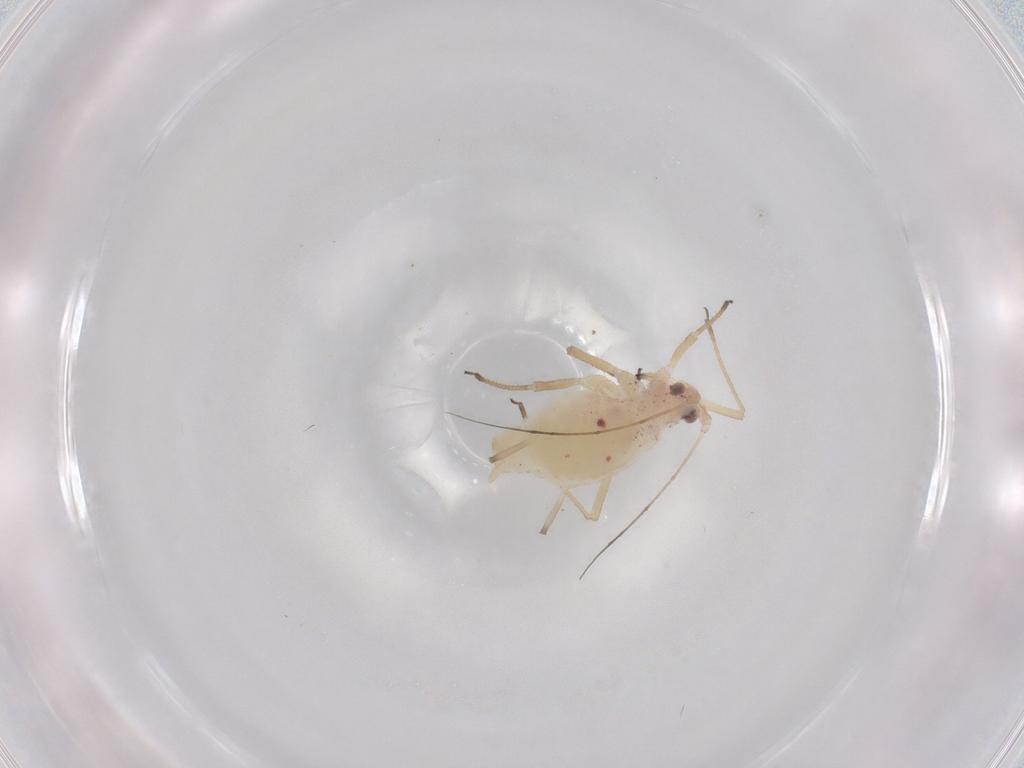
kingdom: Animalia
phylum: Arthropoda
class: Insecta
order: Hemiptera
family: Aphididae
